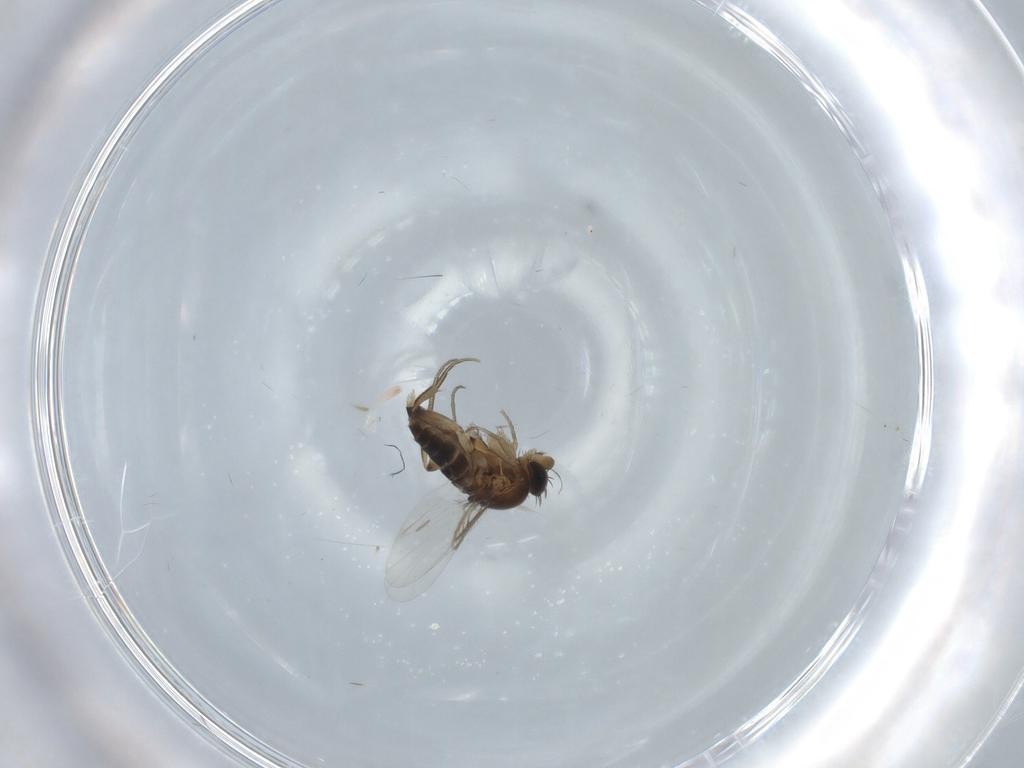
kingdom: Animalia
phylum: Arthropoda
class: Insecta
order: Diptera
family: Phoridae
